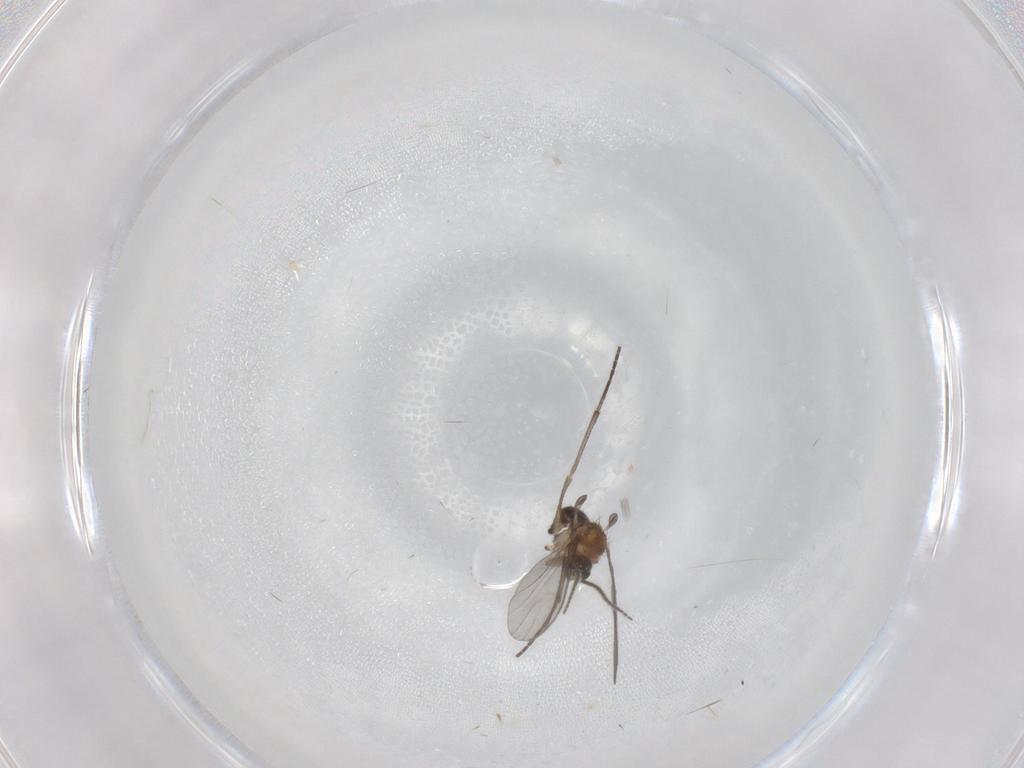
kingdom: Animalia
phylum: Arthropoda
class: Insecta
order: Diptera
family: Sciaridae
